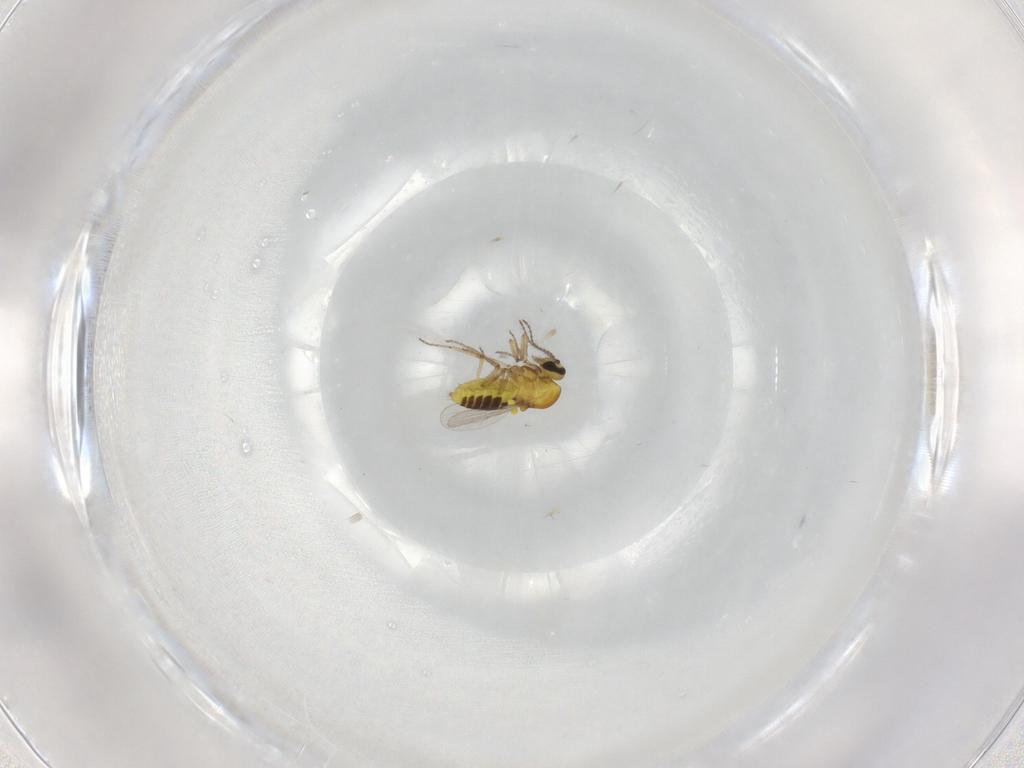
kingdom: Animalia
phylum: Arthropoda
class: Insecta
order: Diptera
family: Ceratopogonidae
